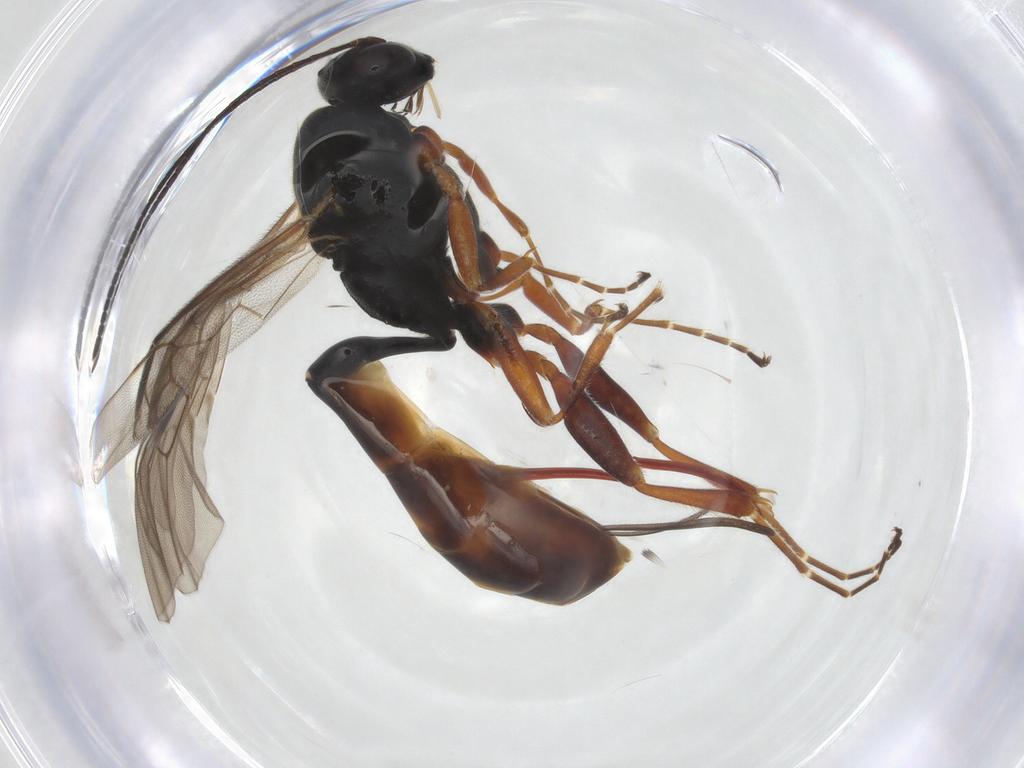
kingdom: Animalia
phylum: Arthropoda
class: Insecta
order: Hymenoptera
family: Ichneumonidae
